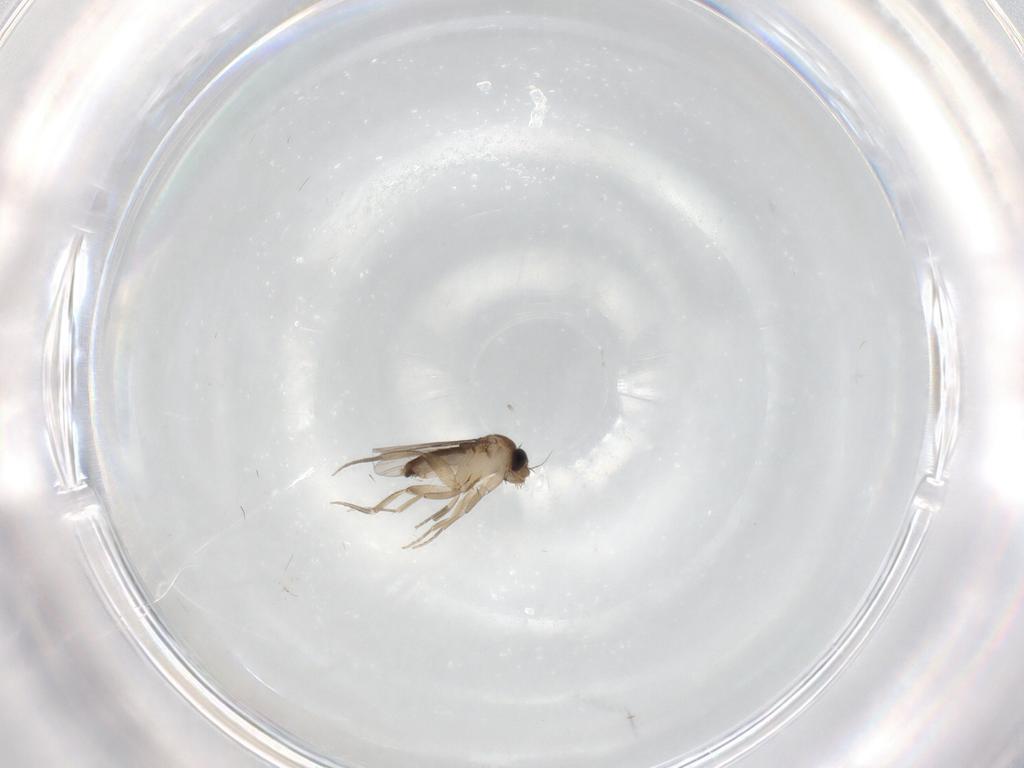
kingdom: Animalia
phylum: Arthropoda
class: Insecta
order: Diptera
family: Phoridae
